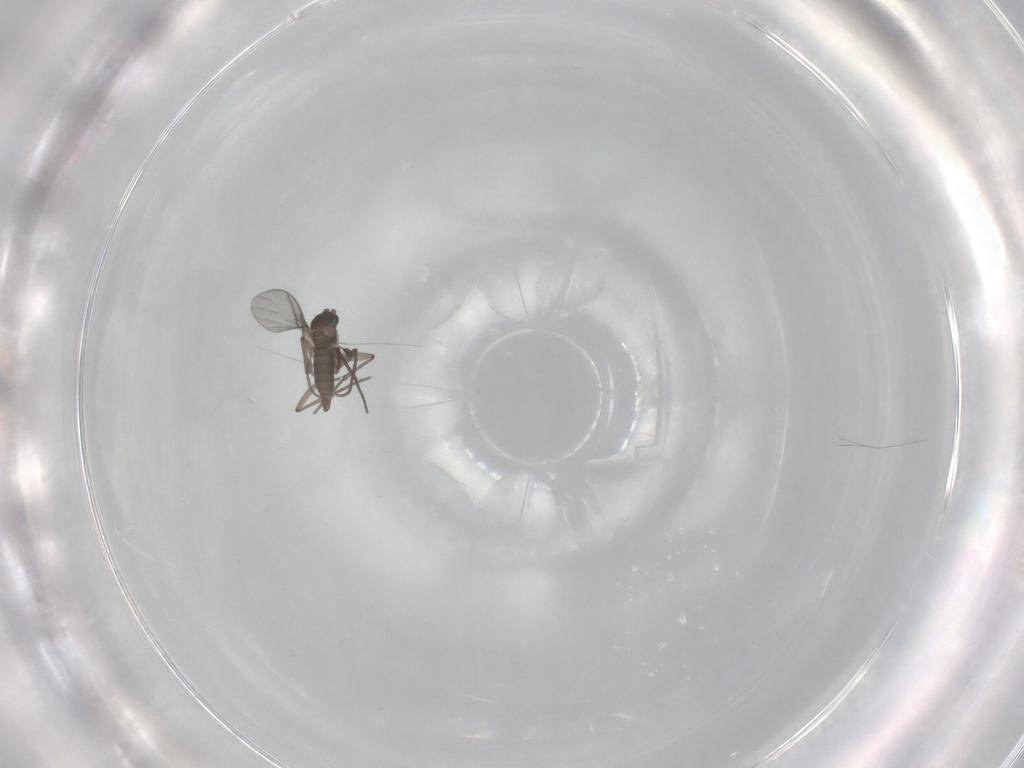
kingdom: Animalia
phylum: Arthropoda
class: Insecta
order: Diptera
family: Sciaridae
